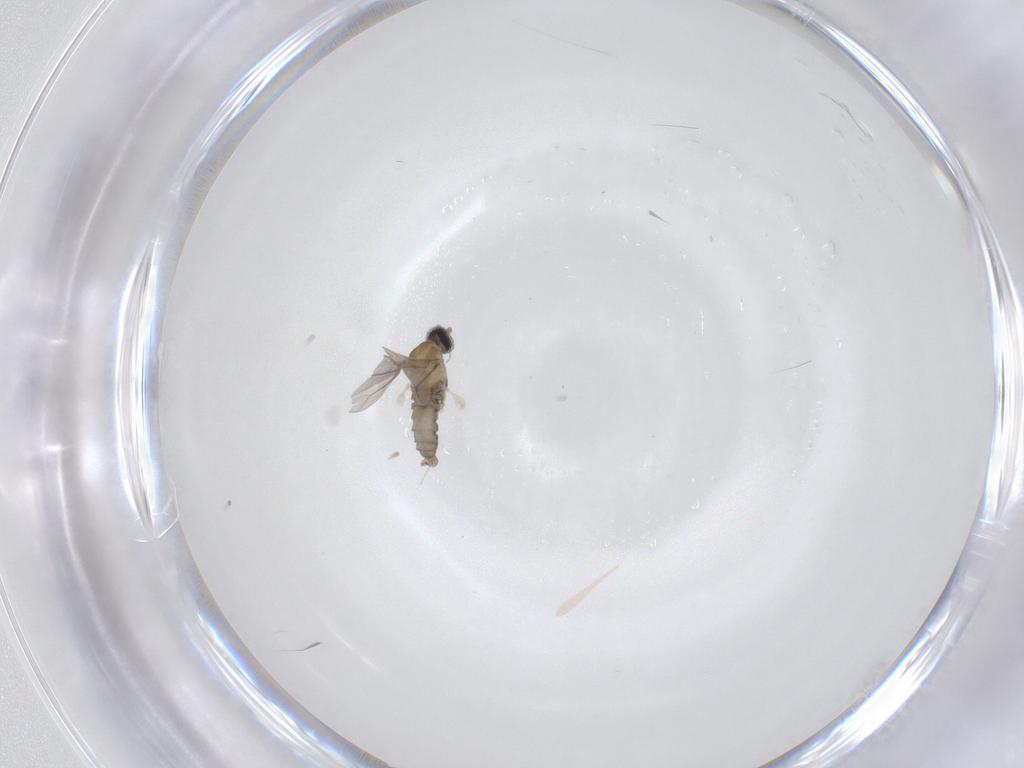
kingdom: Animalia
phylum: Arthropoda
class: Insecta
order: Diptera
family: Cecidomyiidae
